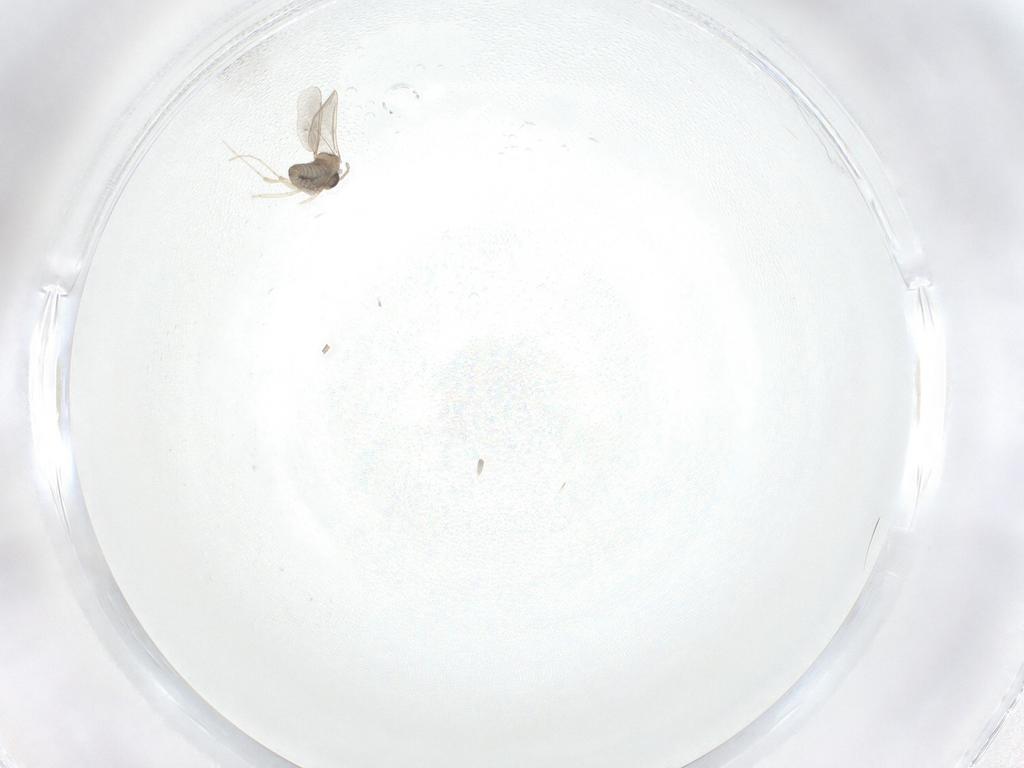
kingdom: Animalia
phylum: Arthropoda
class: Insecta
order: Diptera
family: Cecidomyiidae
